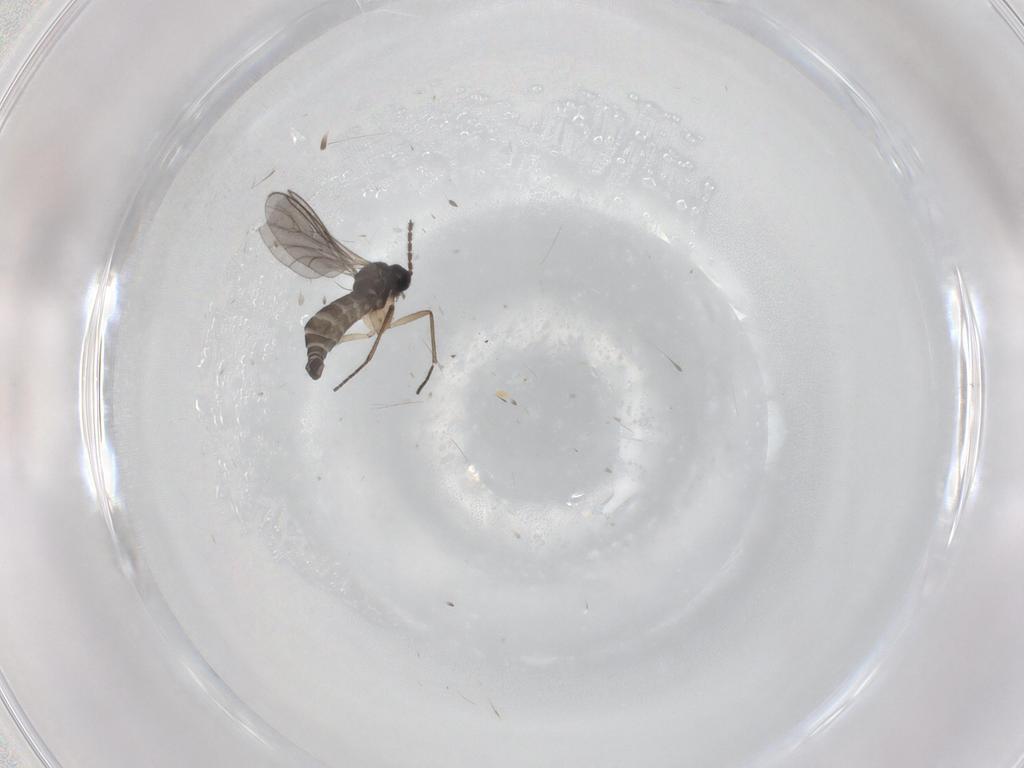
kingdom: Animalia
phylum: Arthropoda
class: Insecta
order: Diptera
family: Sciaridae
